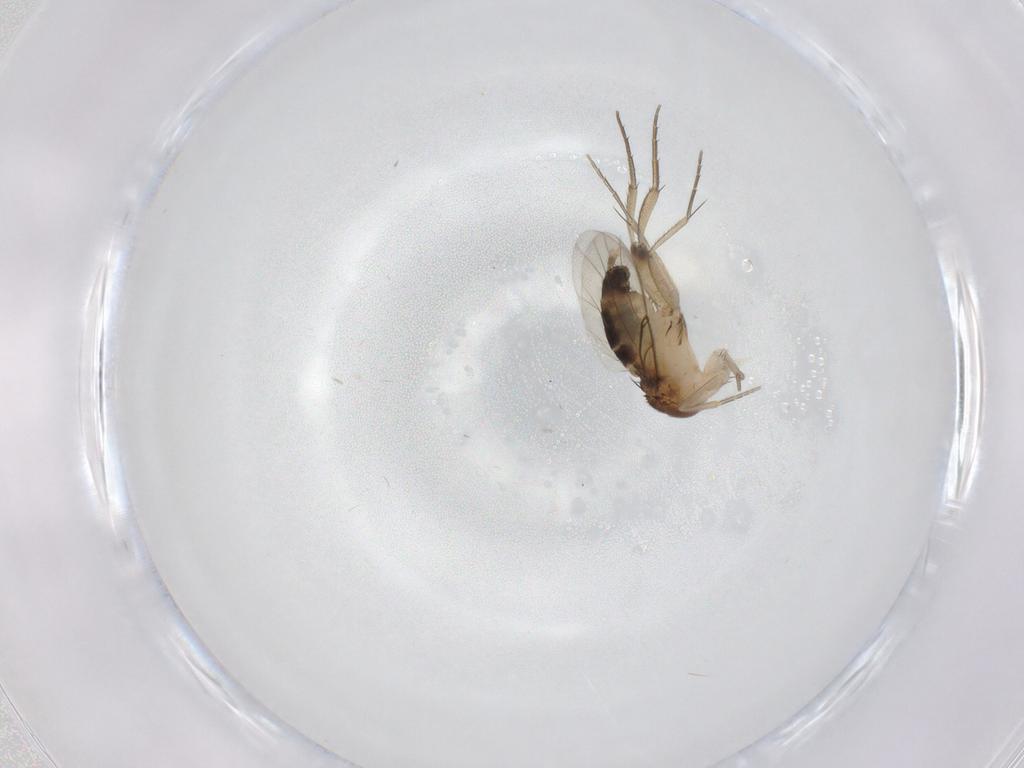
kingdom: Animalia
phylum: Arthropoda
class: Insecta
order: Diptera
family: Phoridae
